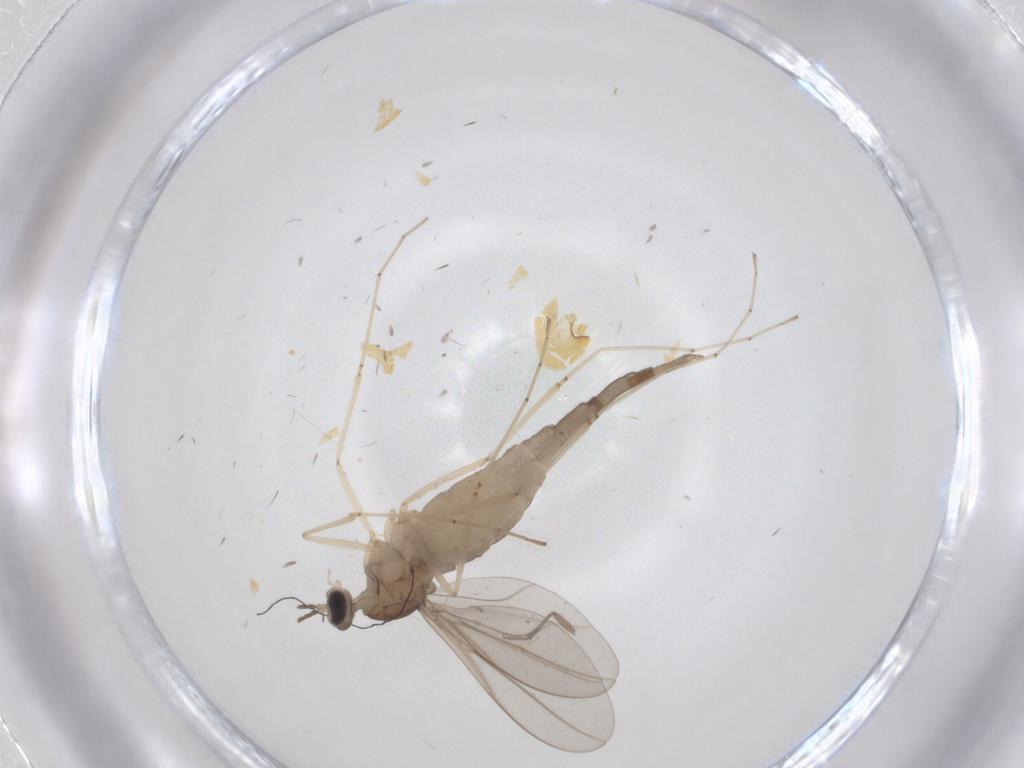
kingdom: Animalia
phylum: Arthropoda
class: Insecta
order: Diptera
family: Cecidomyiidae
